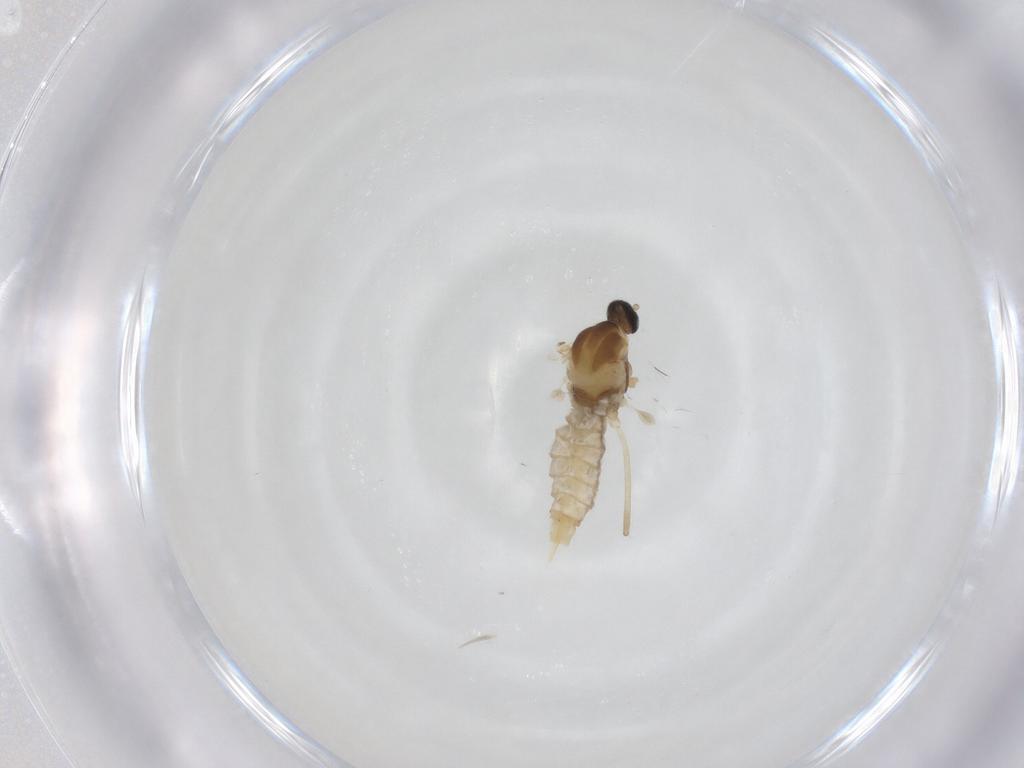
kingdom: Animalia
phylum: Arthropoda
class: Insecta
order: Diptera
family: Cecidomyiidae
